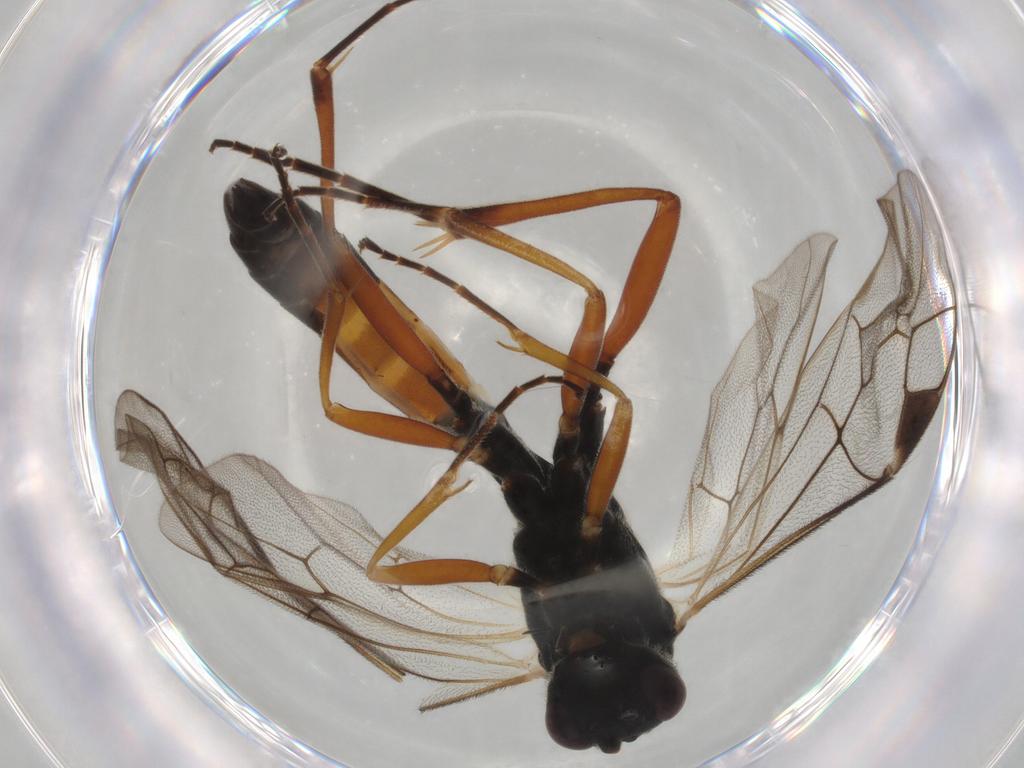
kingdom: Animalia
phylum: Arthropoda
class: Insecta
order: Hymenoptera
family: Formicidae
